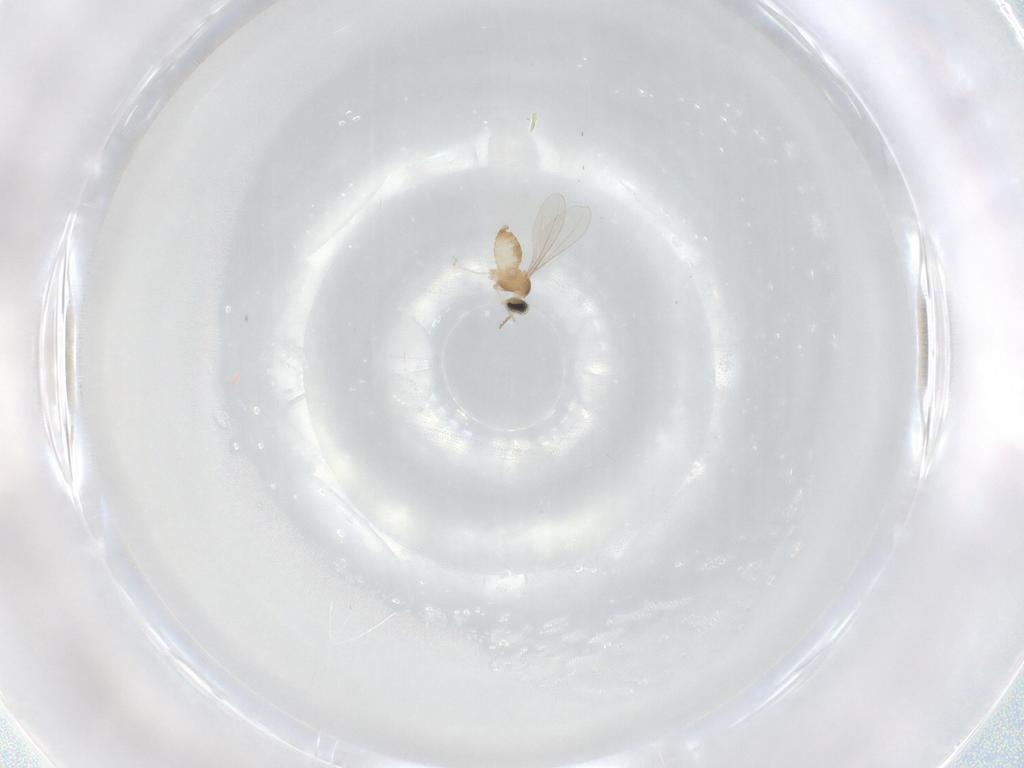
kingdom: Animalia
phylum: Arthropoda
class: Insecta
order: Diptera
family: Cecidomyiidae
